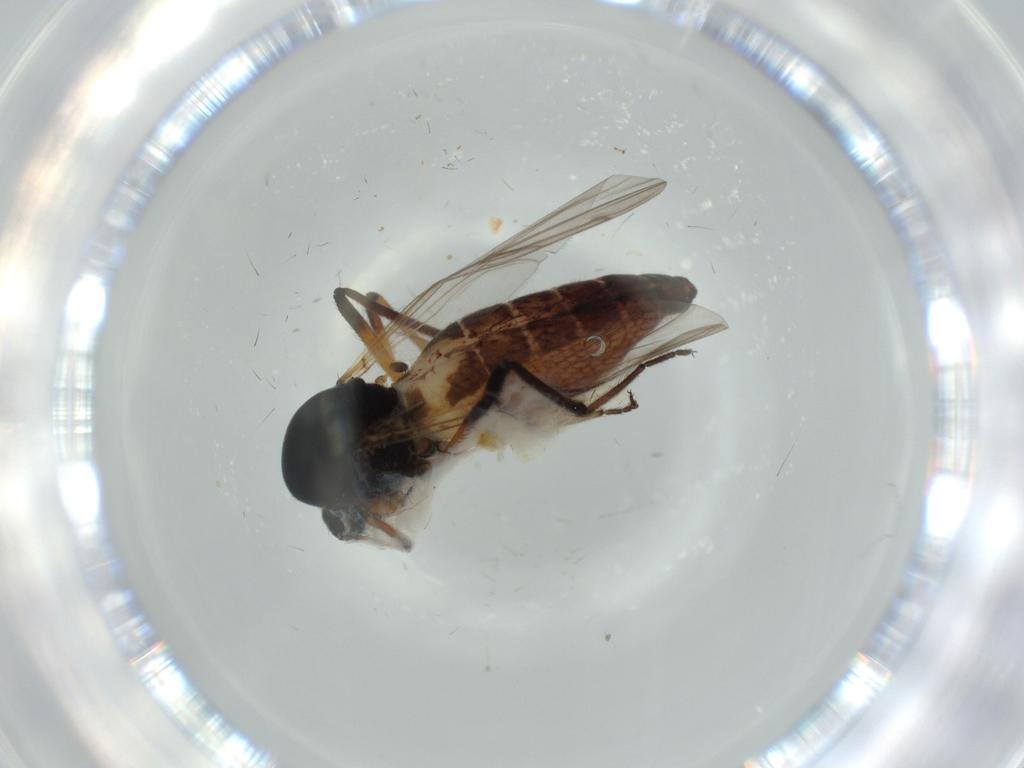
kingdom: Animalia
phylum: Arthropoda
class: Insecta
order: Diptera
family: Ceratopogonidae
